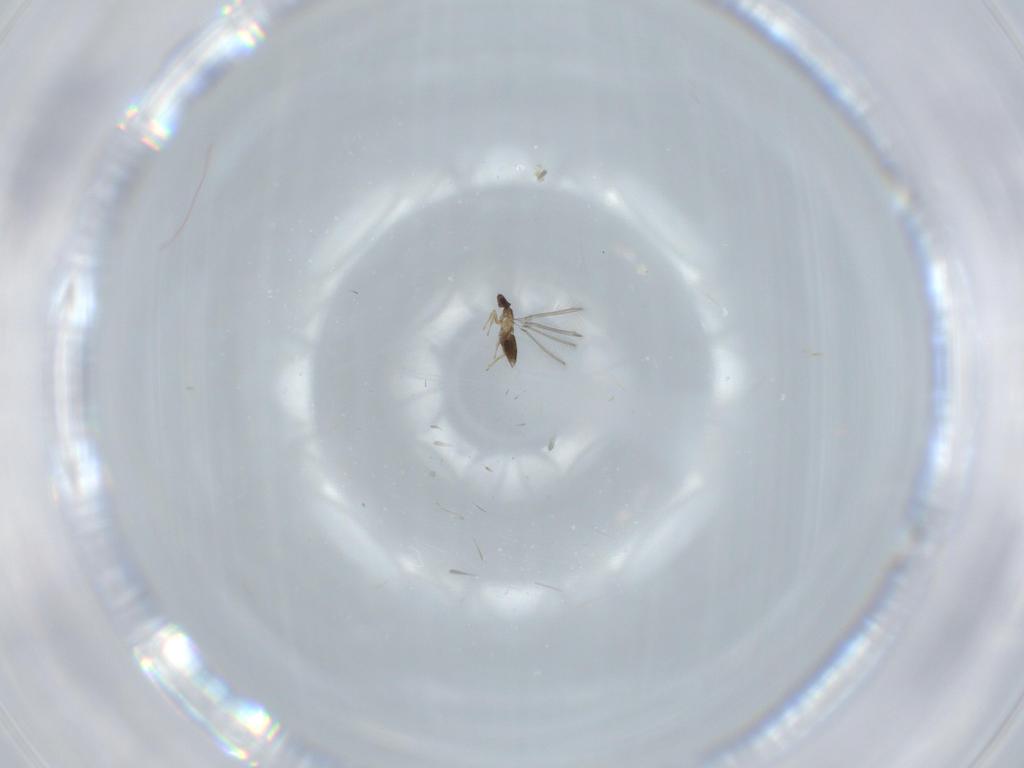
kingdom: Animalia
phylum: Arthropoda
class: Insecta
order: Hymenoptera
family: Mymaridae
